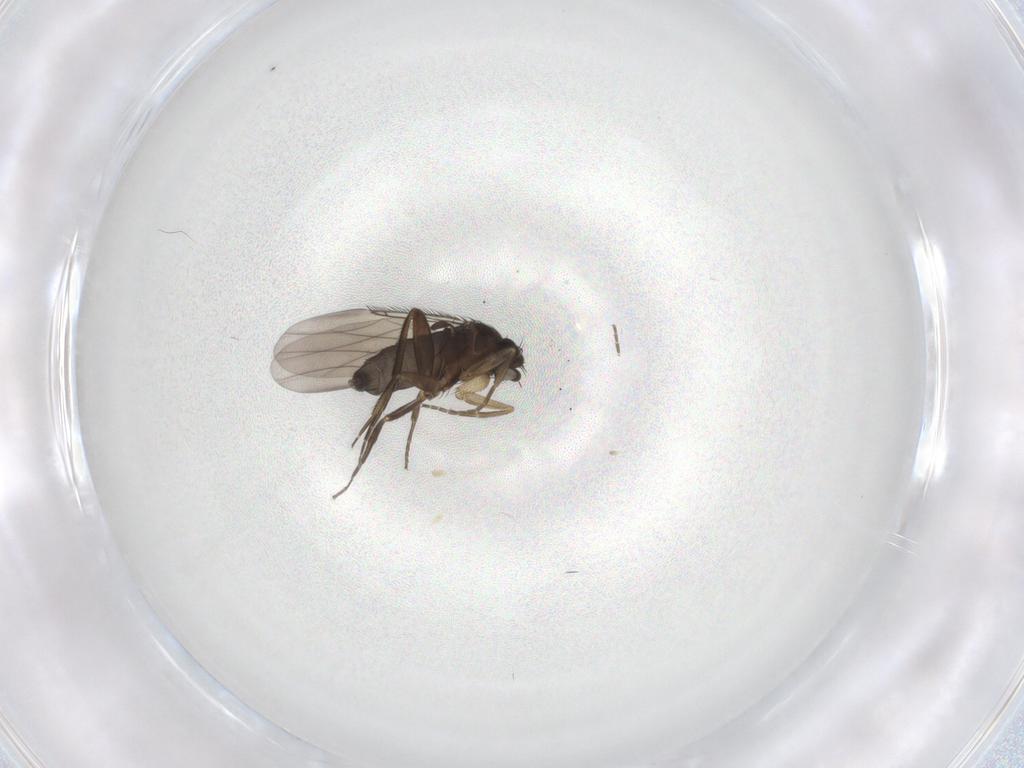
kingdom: Animalia
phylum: Arthropoda
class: Insecta
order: Diptera
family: Phoridae
